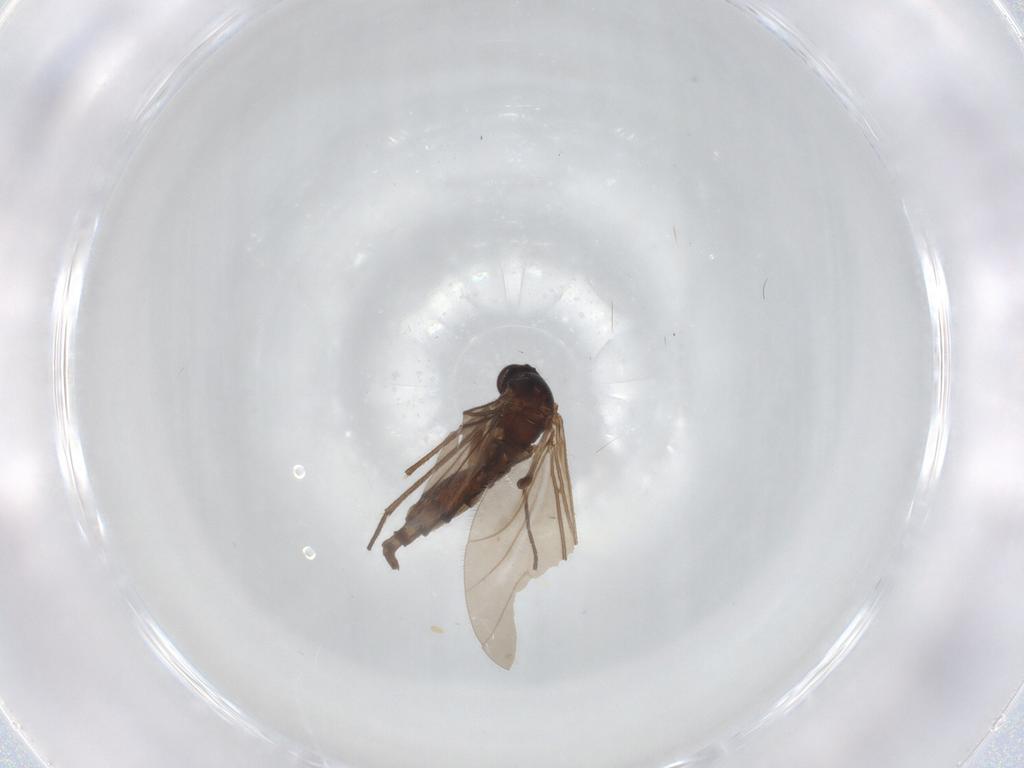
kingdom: Animalia
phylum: Arthropoda
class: Insecta
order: Diptera
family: Sciaridae
